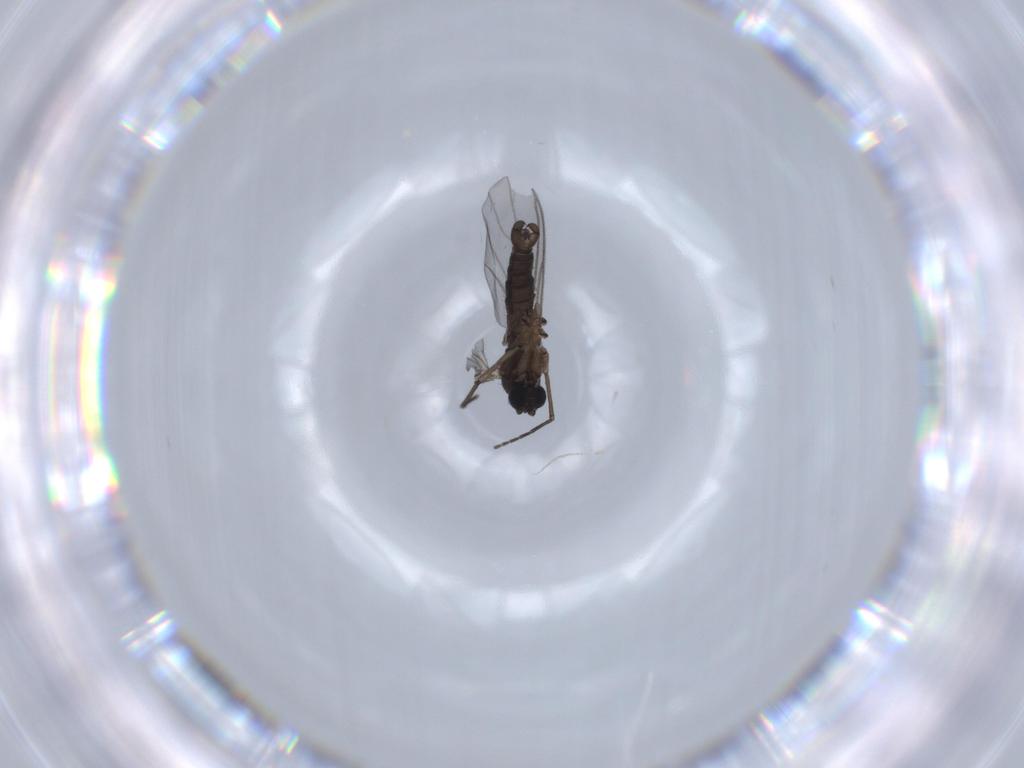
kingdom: Animalia
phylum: Arthropoda
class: Insecta
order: Diptera
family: Sciaridae
